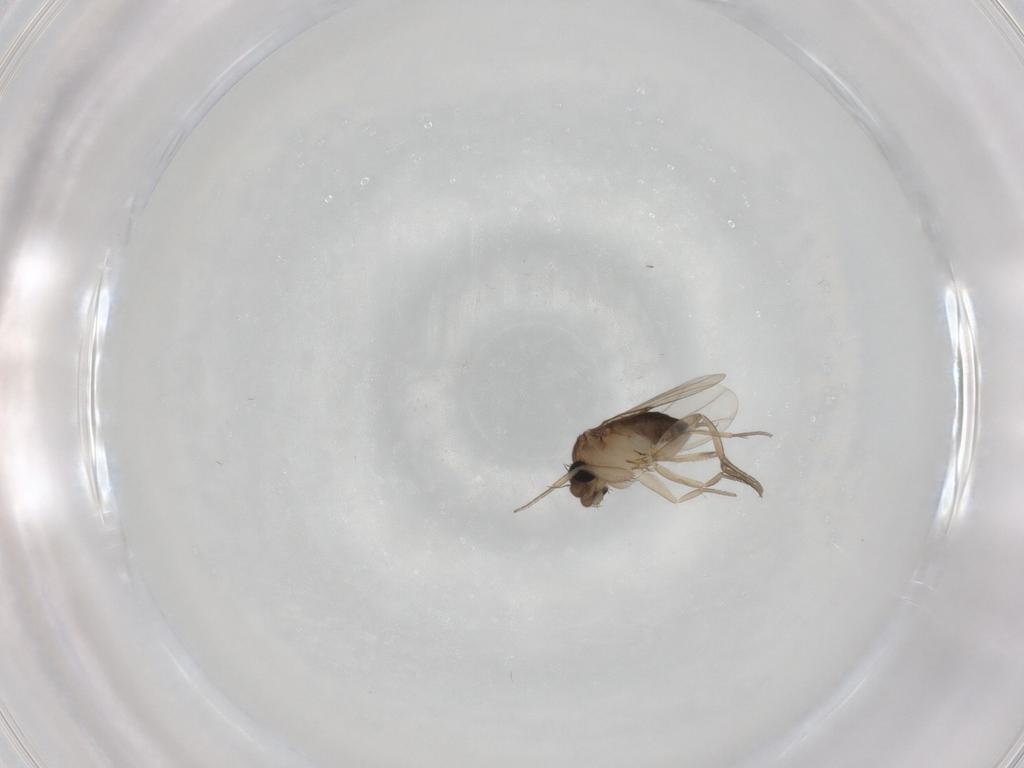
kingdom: Animalia
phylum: Arthropoda
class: Insecta
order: Diptera
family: Phoridae
